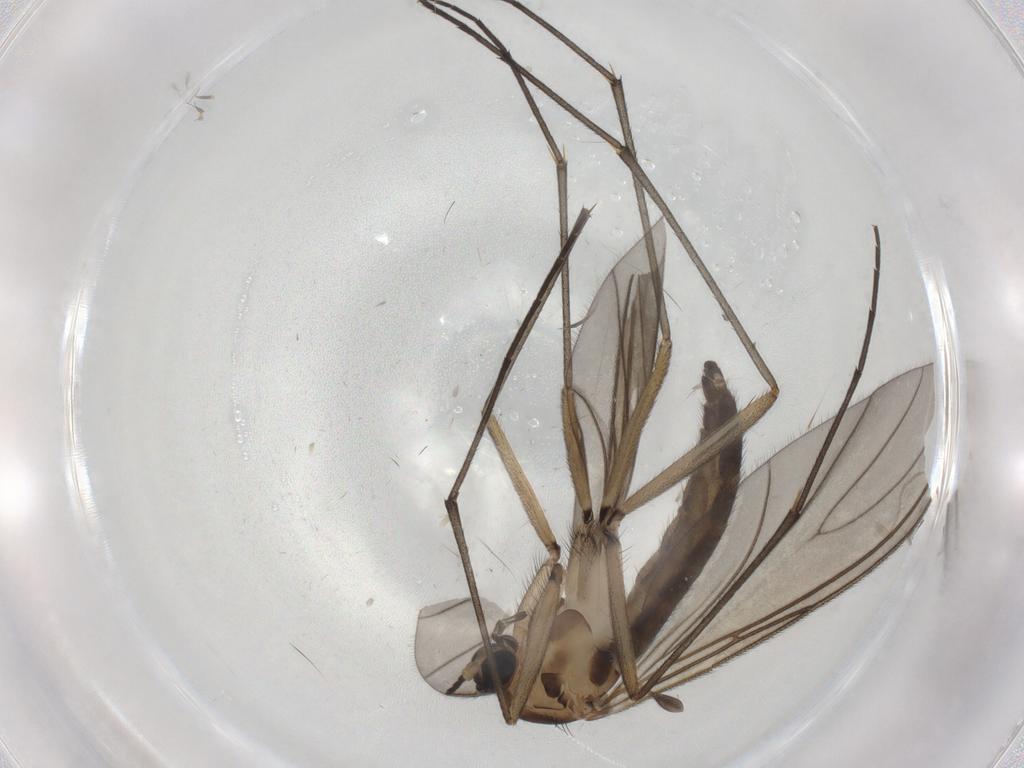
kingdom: Animalia
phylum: Arthropoda
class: Insecta
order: Diptera
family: Sciaridae
